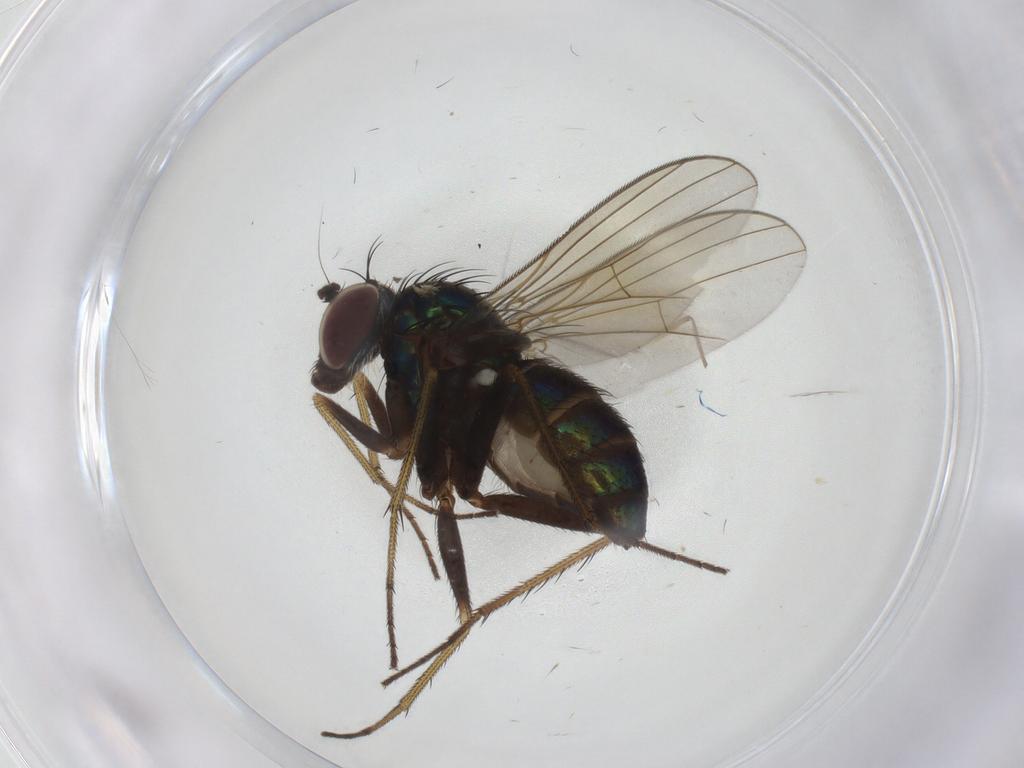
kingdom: Animalia
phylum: Arthropoda
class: Insecta
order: Diptera
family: Dolichopodidae
